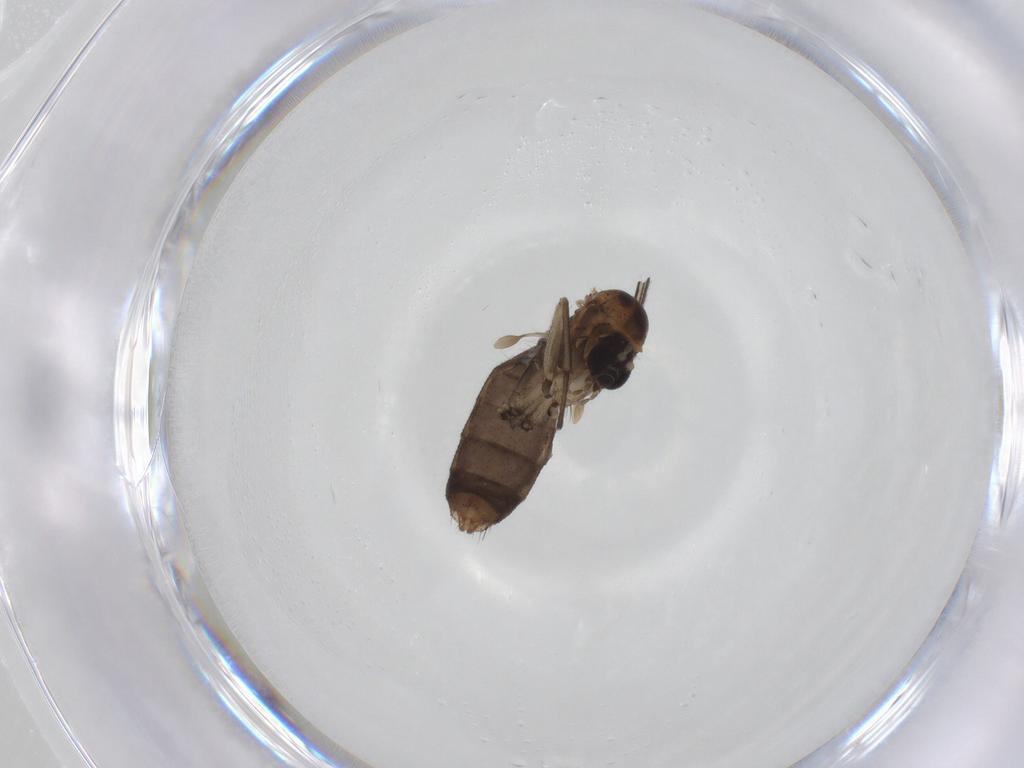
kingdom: Animalia
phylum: Arthropoda
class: Insecta
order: Diptera
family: Mycetophilidae
